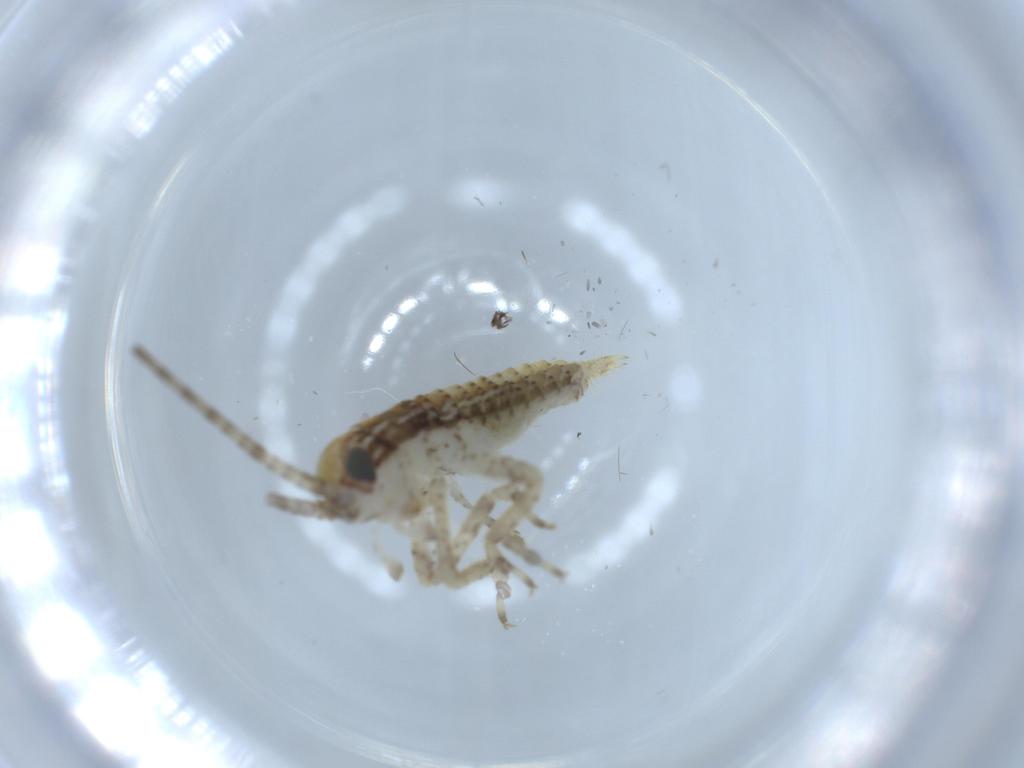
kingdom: Animalia
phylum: Arthropoda
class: Insecta
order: Orthoptera
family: Gryllidae
